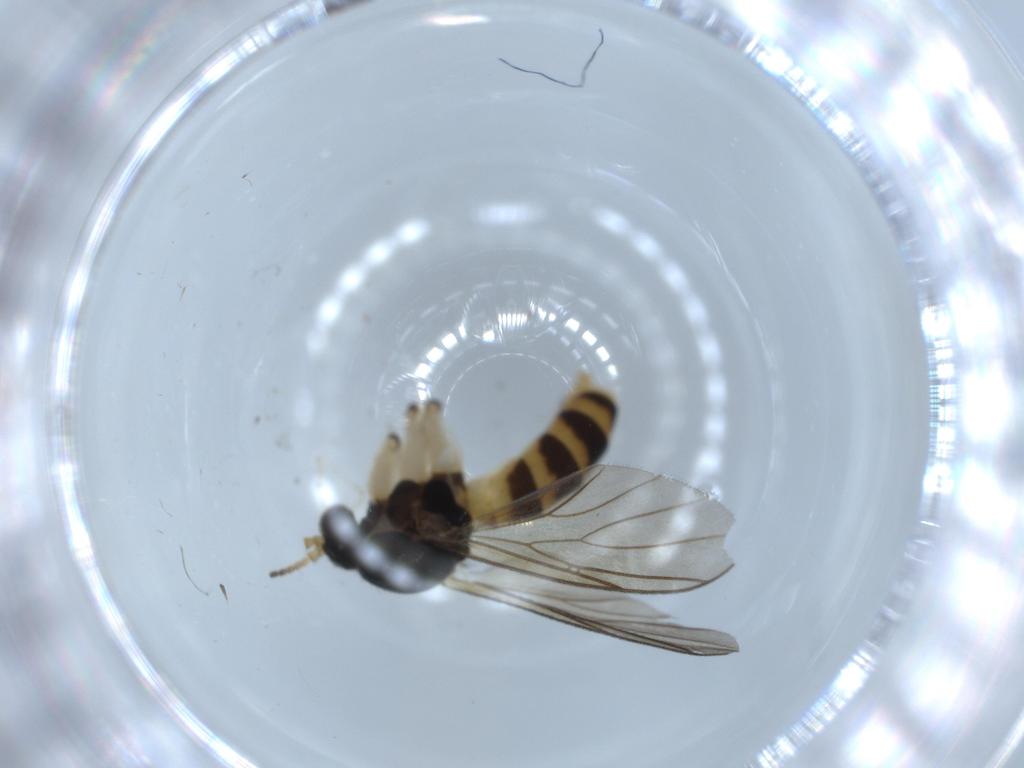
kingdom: Animalia
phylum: Arthropoda
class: Insecta
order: Diptera
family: Mycetophilidae
